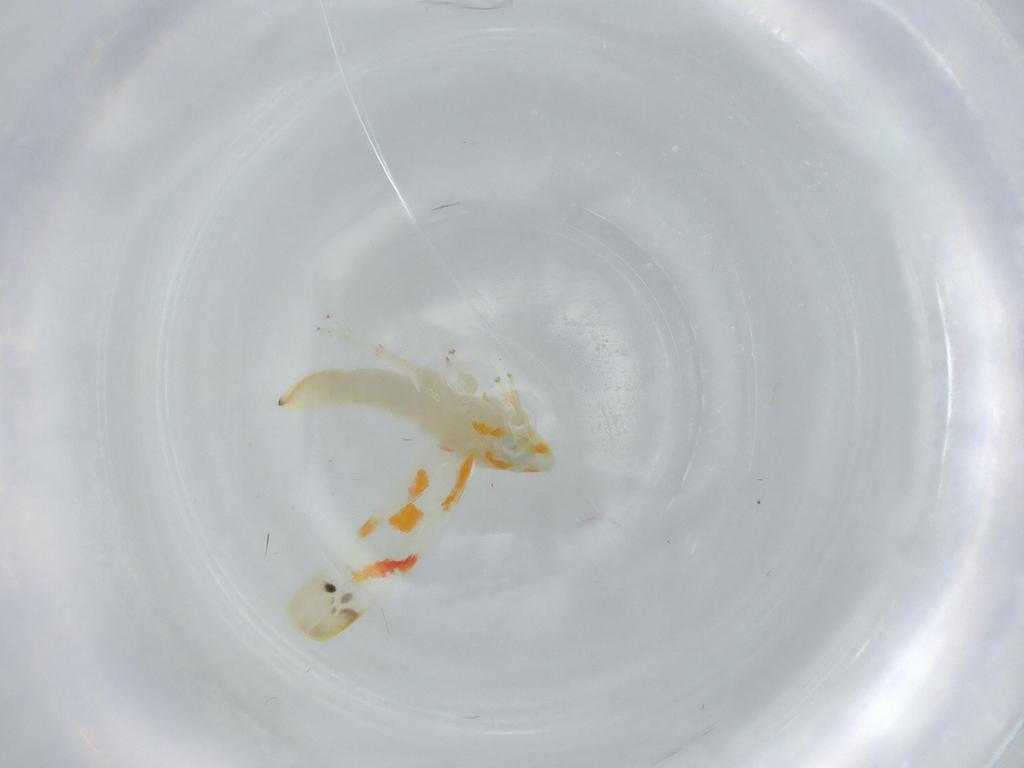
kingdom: Animalia
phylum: Arthropoda
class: Insecta
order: Hemiptera
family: Aphididae
